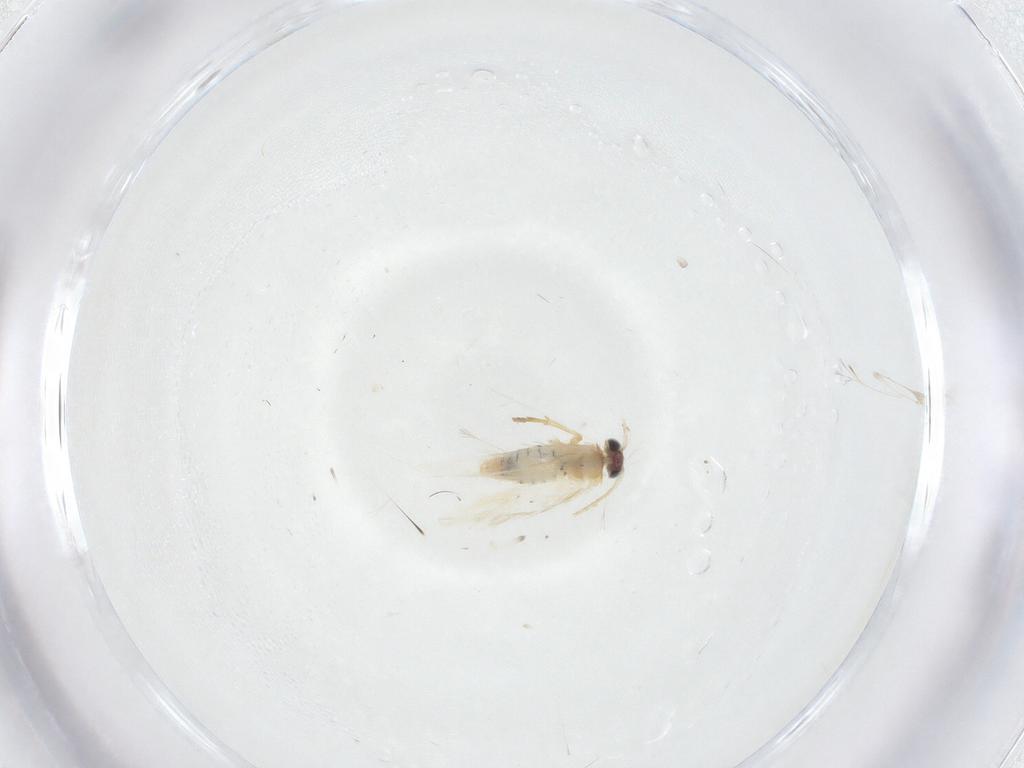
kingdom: Animalia
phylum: Arthropoda
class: Insecta
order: Lepidoptera
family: Nepticulidae
